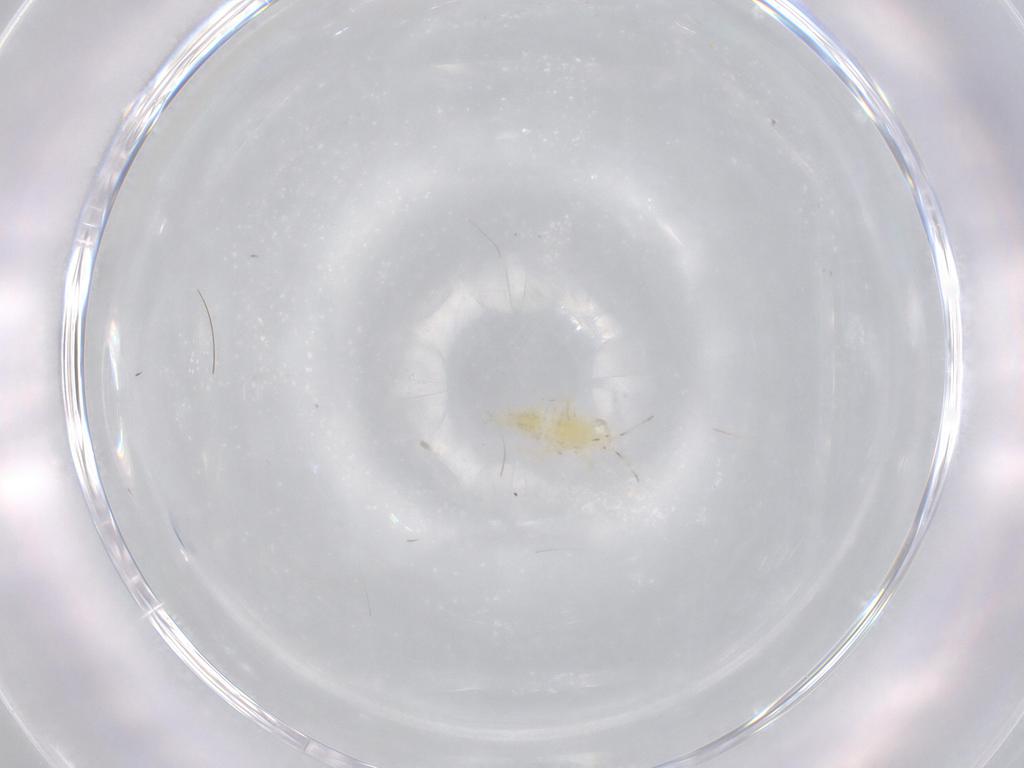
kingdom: Animalia
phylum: Arthropoda
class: Insecta
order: Thysanoptera
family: Phlaeothripidae
